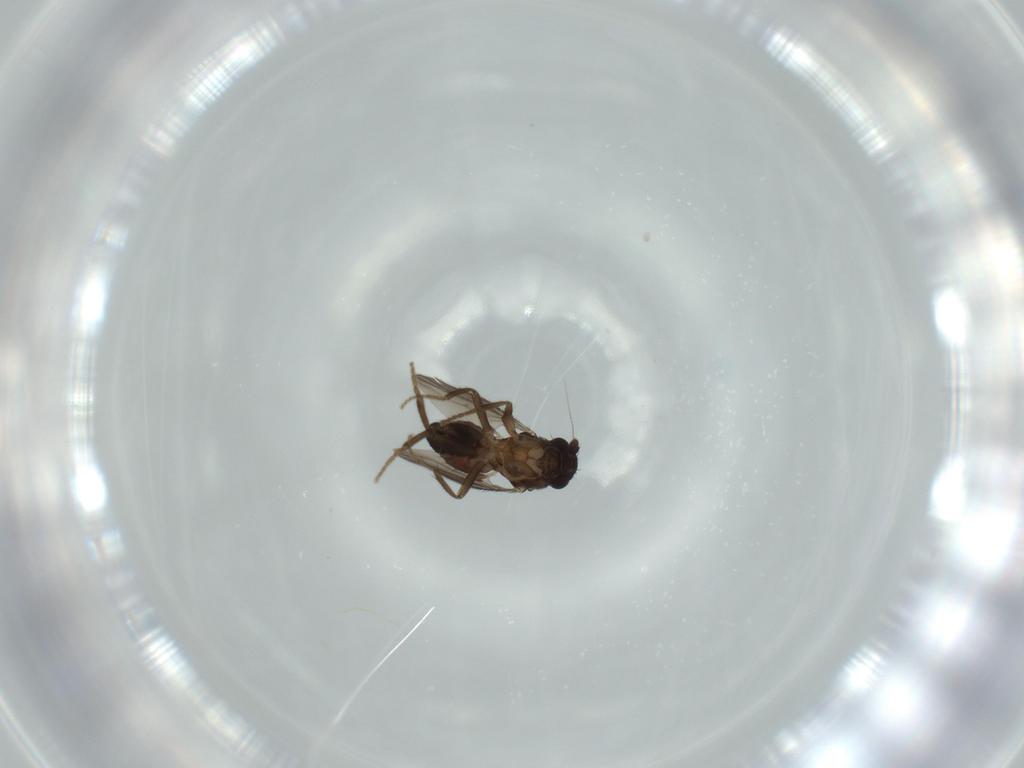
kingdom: Animalia
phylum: Arthropoda
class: Insecta
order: Diptera
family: Sphaeroceridae
